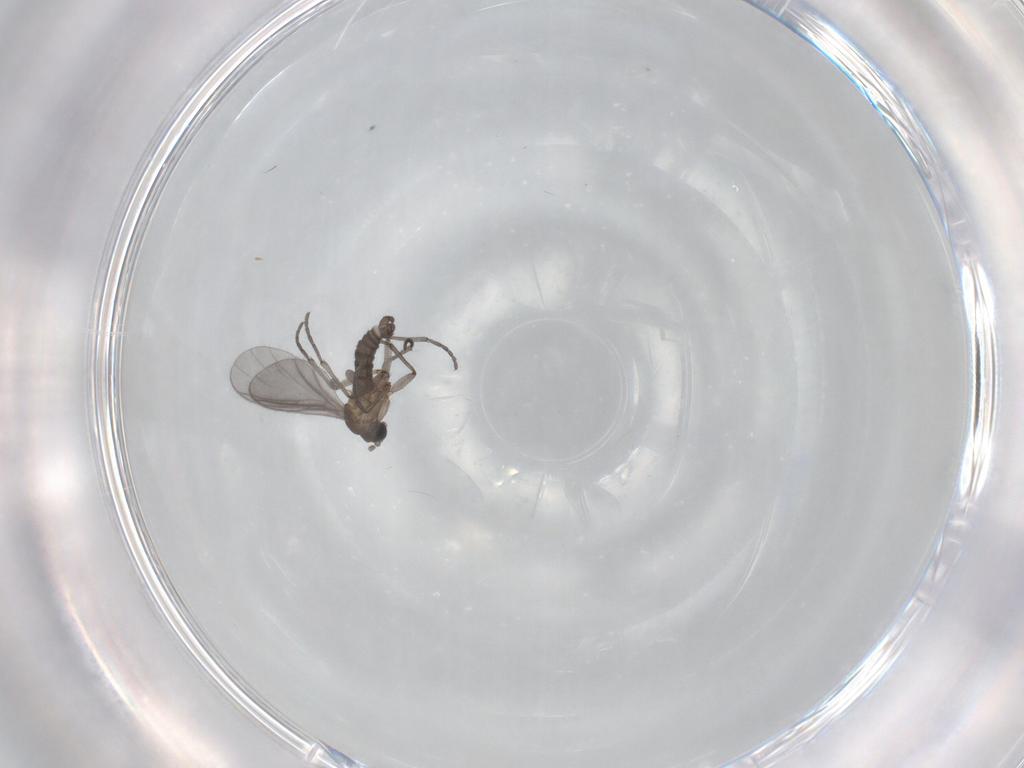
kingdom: Animalia
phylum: Arthropoda
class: Insecta
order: Diptera
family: Sciaridae
